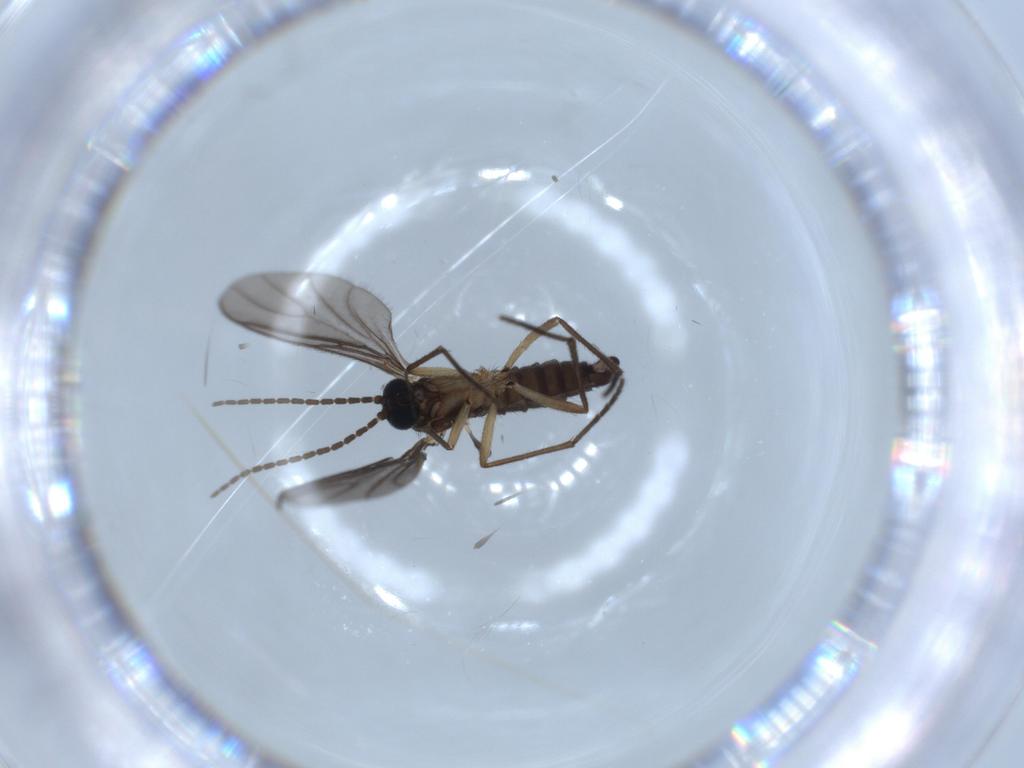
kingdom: Animalia
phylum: Arthropoda
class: Insecta
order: Diptera
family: Sciaridae
